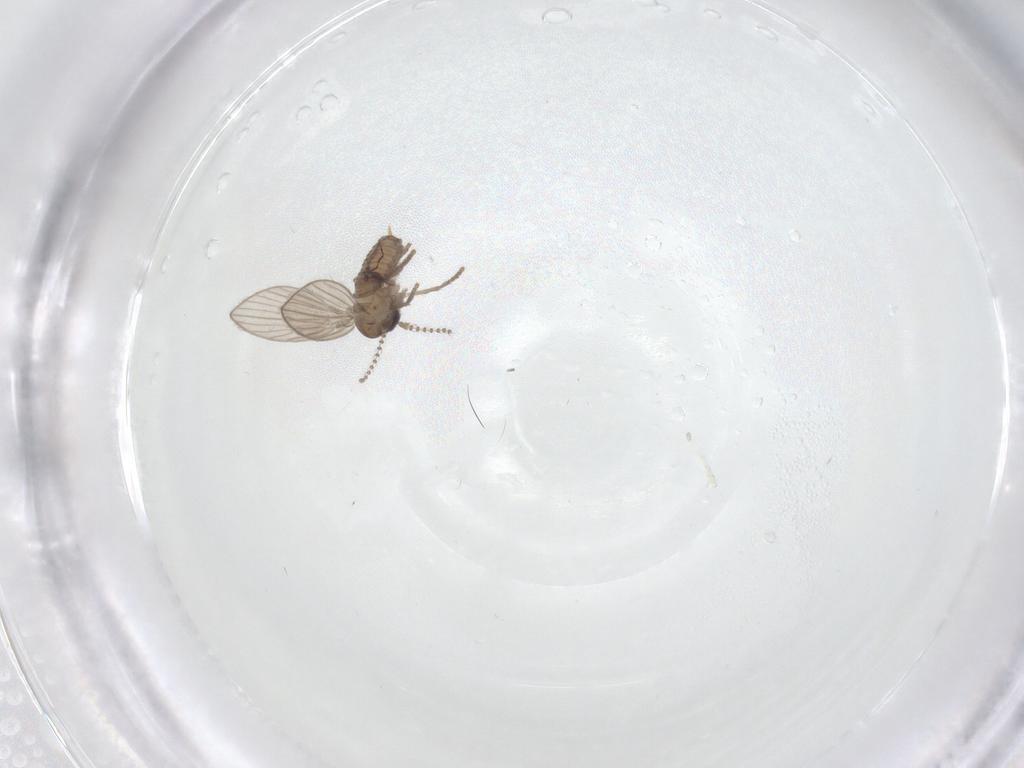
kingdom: Animalia
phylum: Arthropoda
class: Insecta
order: Diptera
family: Psychodidae
